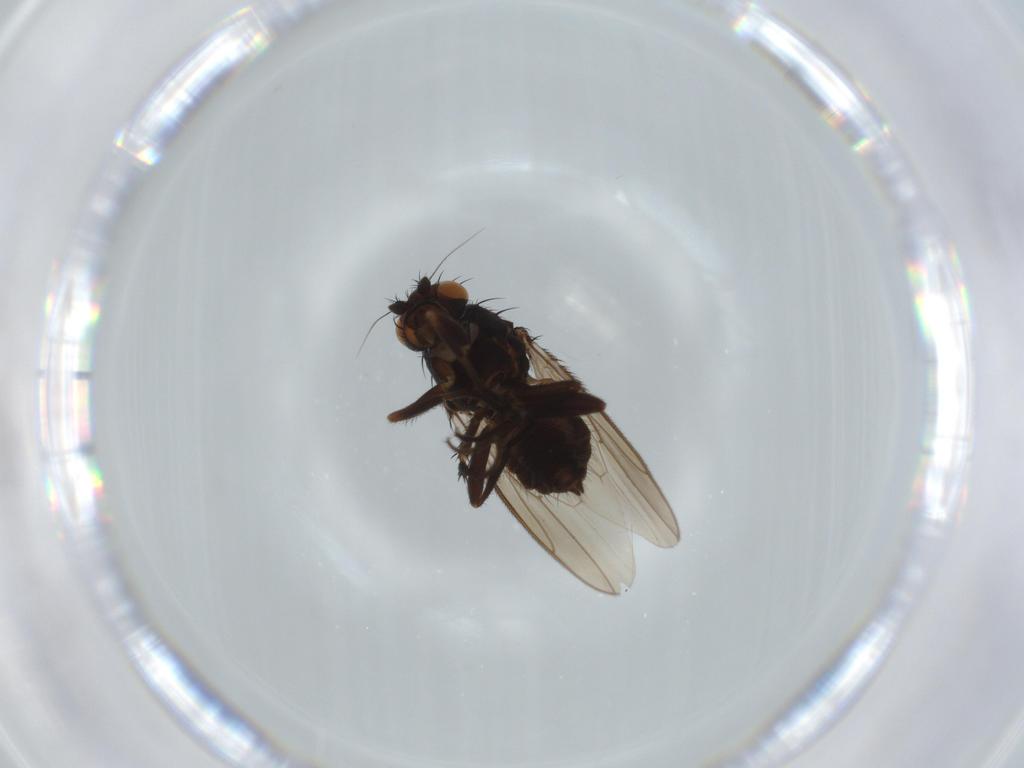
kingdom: Animalia
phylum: Arthropoda
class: Insecta
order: Diptera
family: Sphaeroceridae
